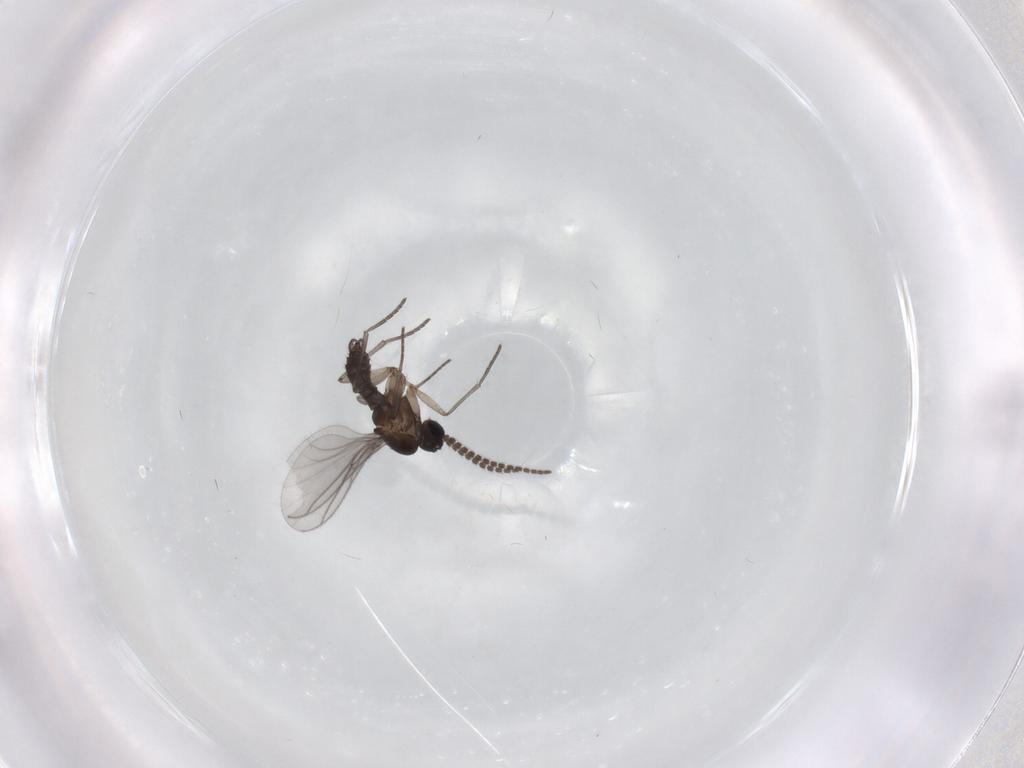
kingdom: Animalia
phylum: Arthropoda
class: Insecta
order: Diptera
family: Sciaridae
